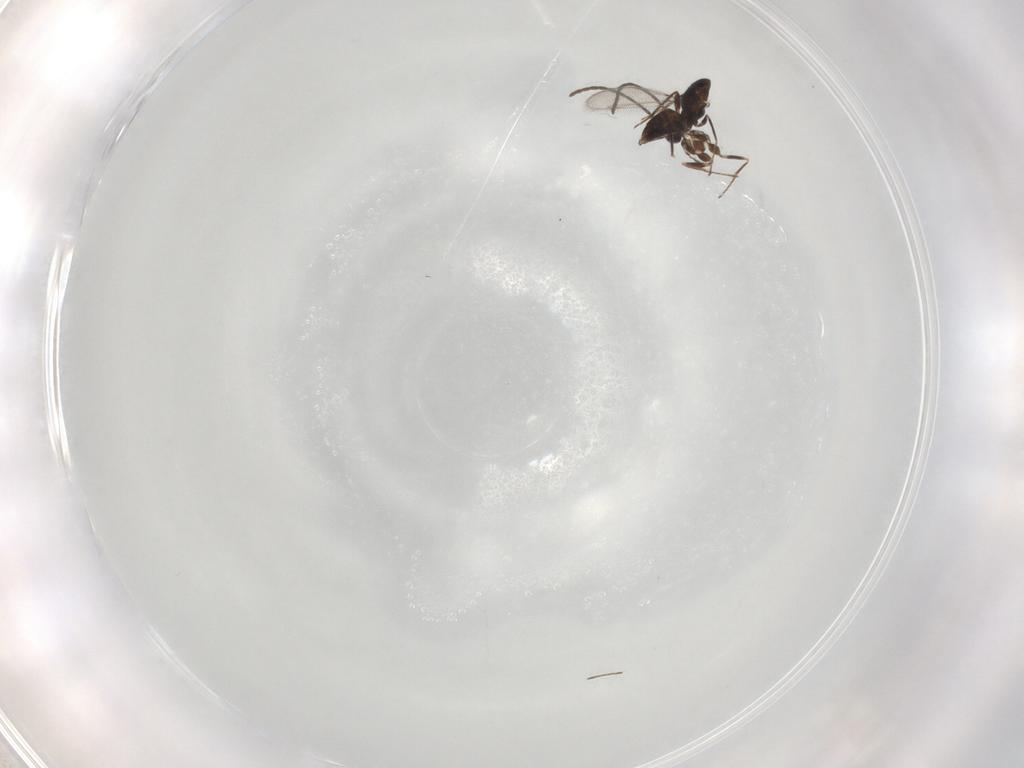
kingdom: Animalia
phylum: Arthropoda
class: Insecta
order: Hymenoptera
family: Mymaridae
